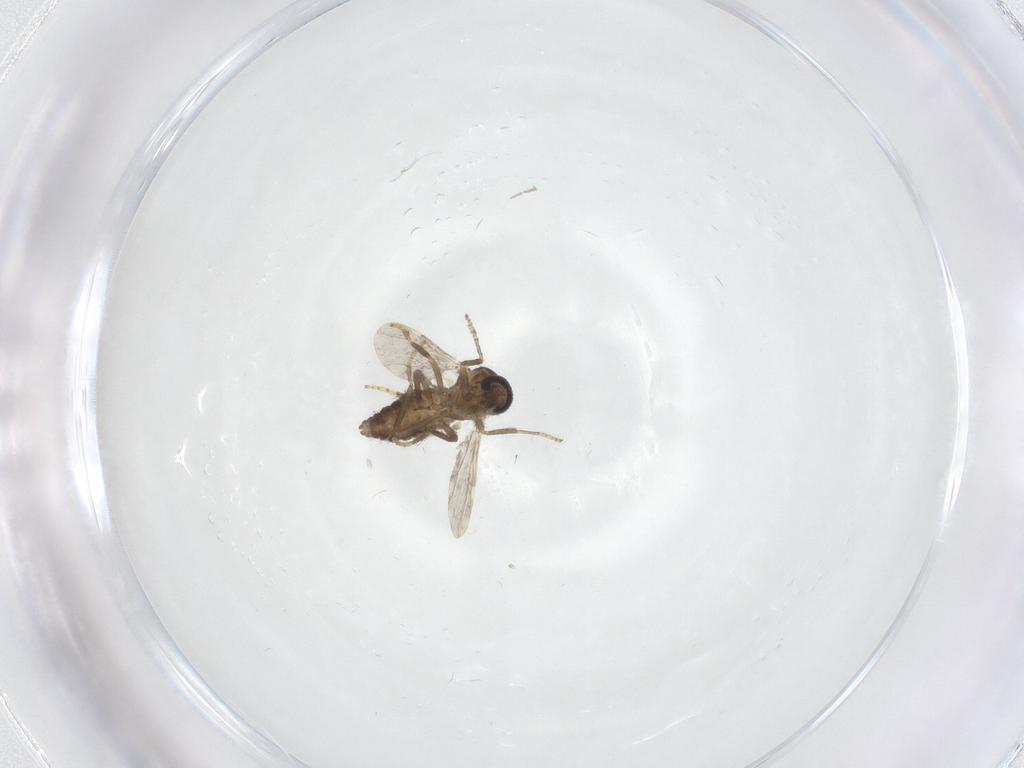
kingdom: Animalia
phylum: Arthropoda
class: Insecta
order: Diptera
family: Ceratopogonidae
